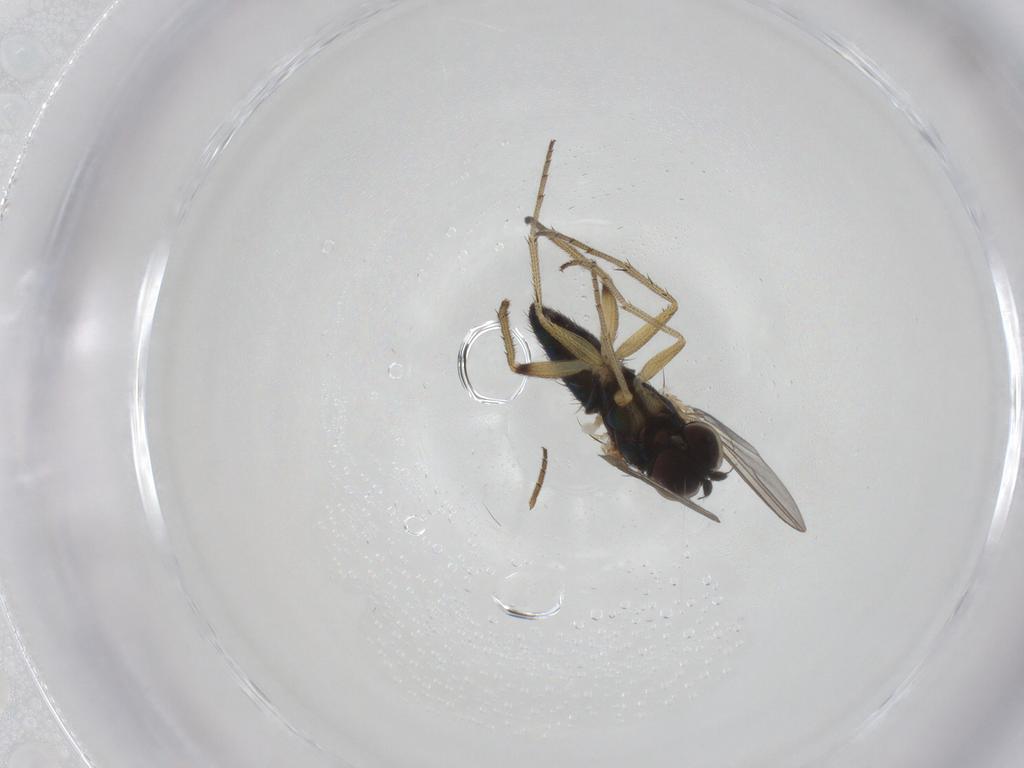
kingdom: Animalia
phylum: Arthropoda
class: Insecta
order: Diptera
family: Dolichopodidae
